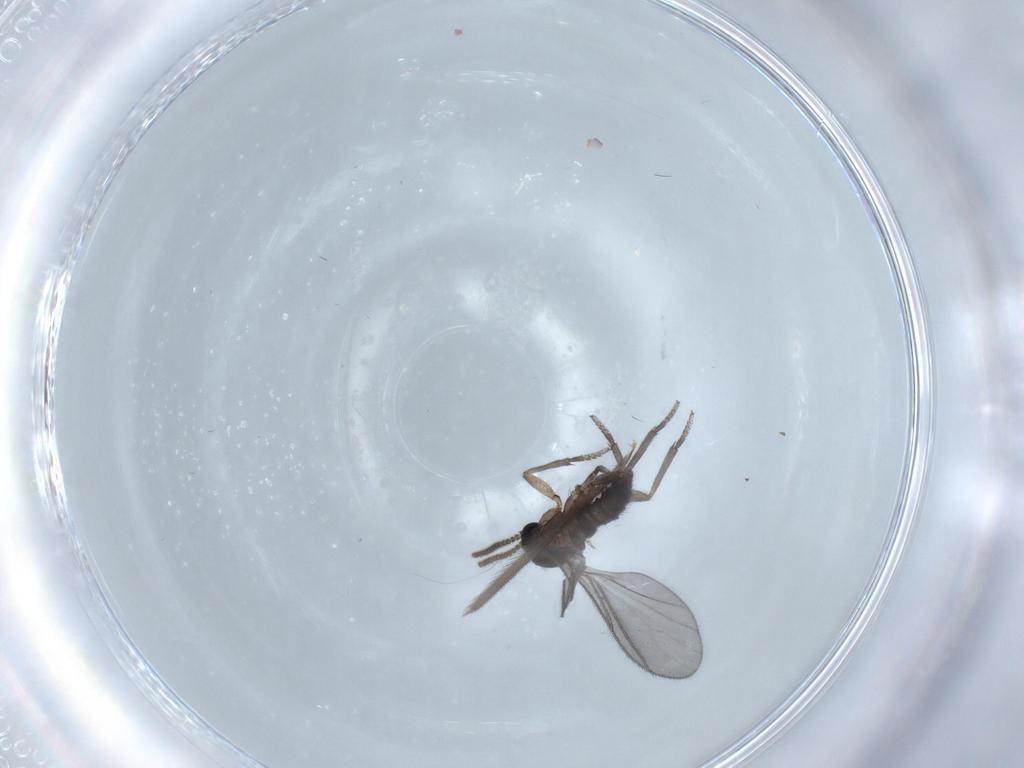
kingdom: Animalia
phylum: Arthropoda
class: Insecta
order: Diptera
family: Sciaridae
